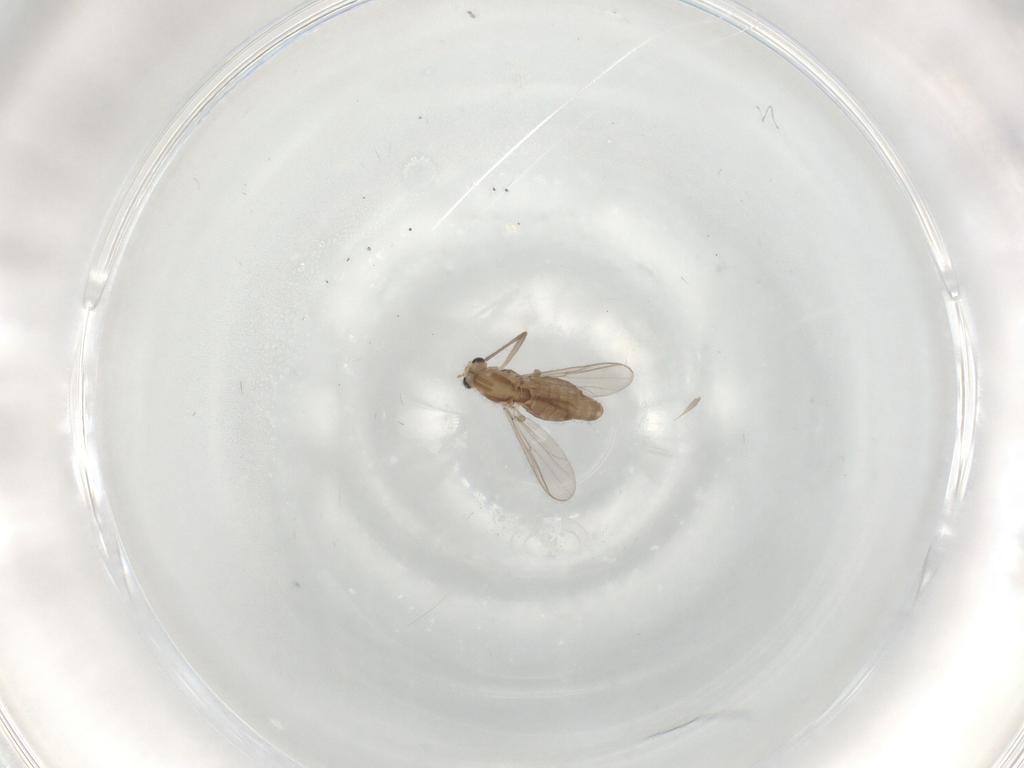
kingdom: Animalia
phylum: Arthropoda
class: Insecta
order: Diptera
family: Chironomidae
